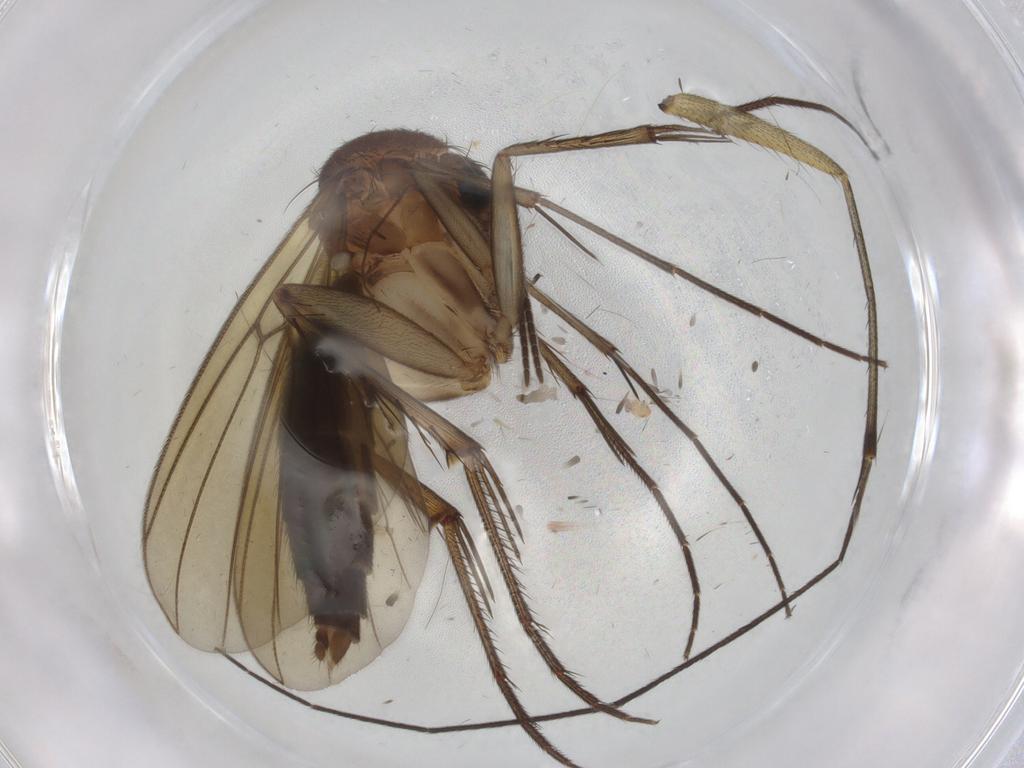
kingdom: Animalia
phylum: Arthropoda
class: Insecta
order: Diptera
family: Mycetophilidae
